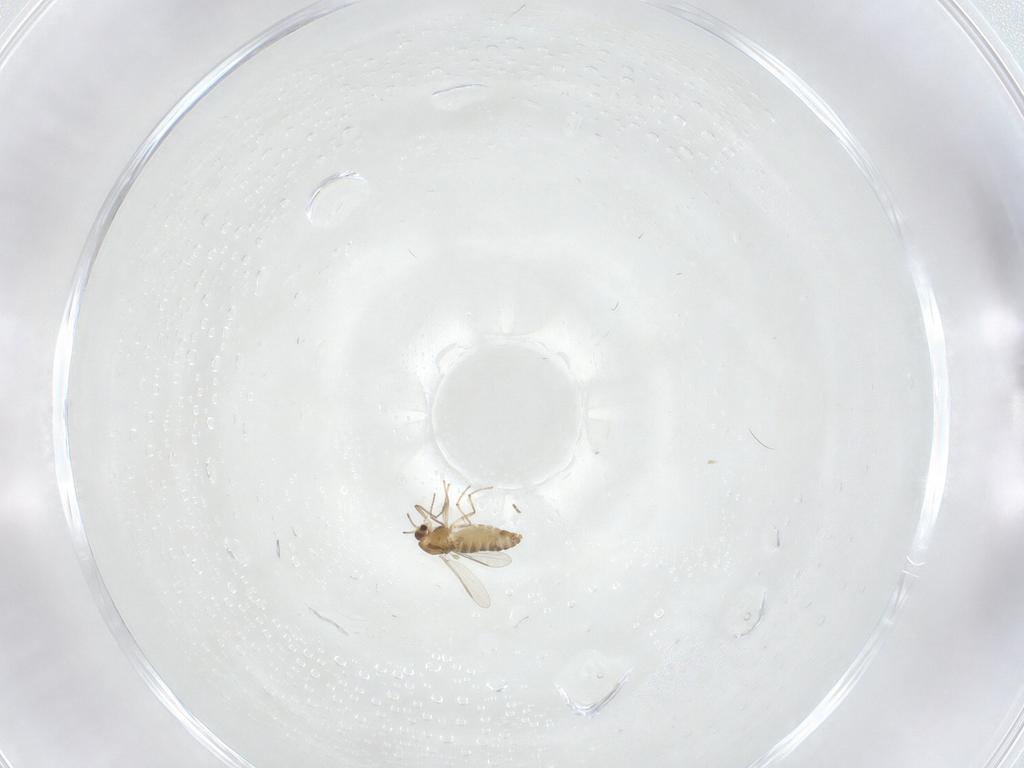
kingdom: Animalia
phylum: Arthropoda
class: Insecta
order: Diptera
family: Chironomidae
